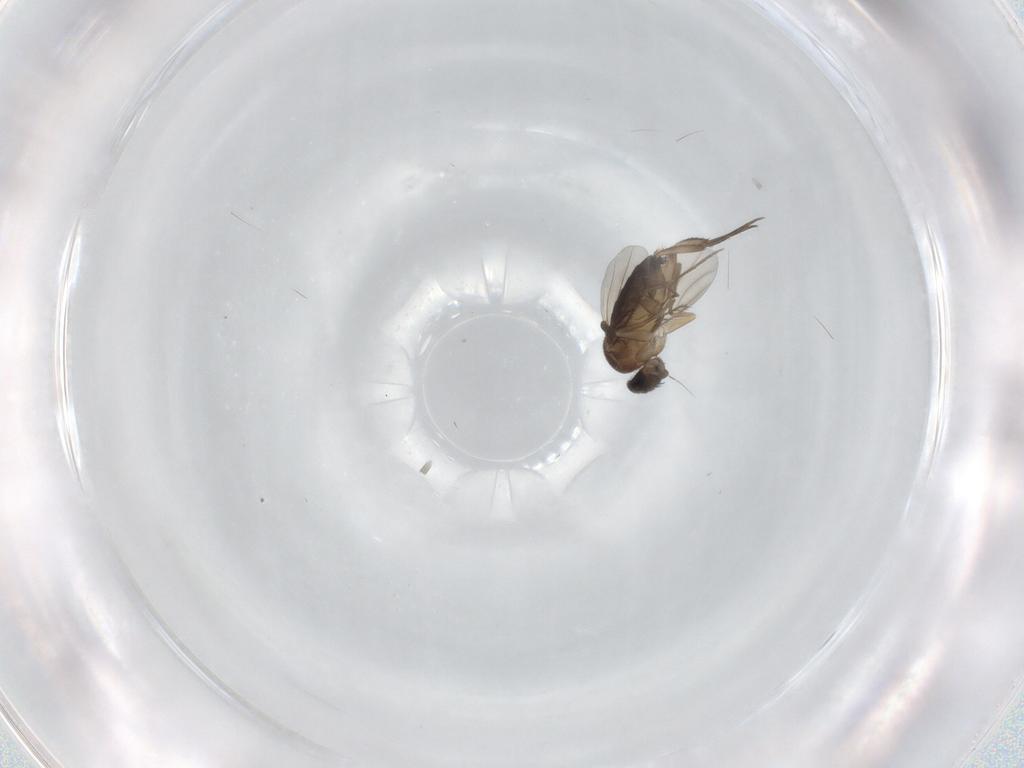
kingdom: Animalia
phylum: Arthropoda
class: Insecta
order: Diptera
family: Phoridae
